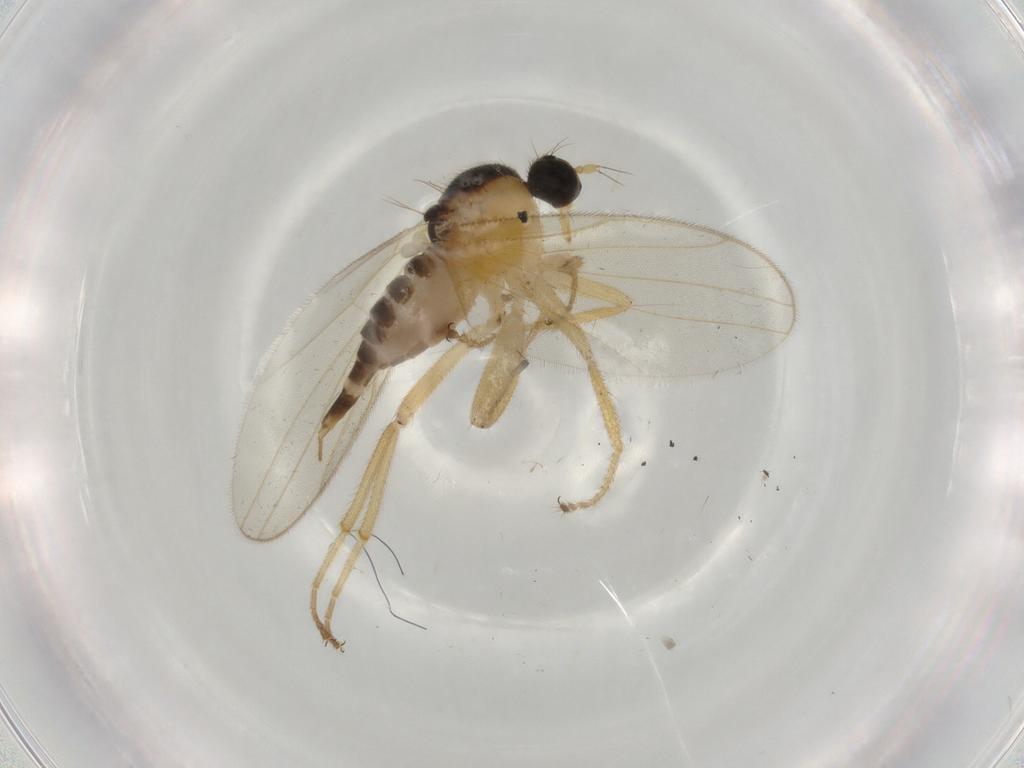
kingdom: Animalia
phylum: Arthropoda
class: Insecta
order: Diptera
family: Hybotidae
